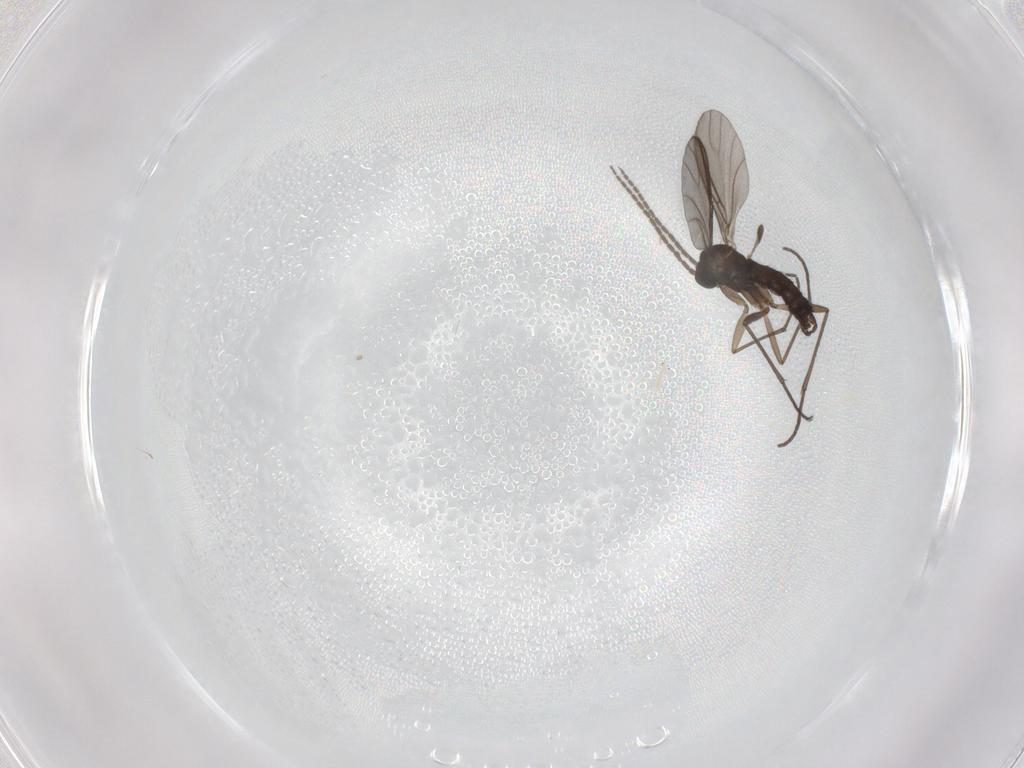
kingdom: Animalia
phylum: Arthropoda
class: Insecta
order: Diptera
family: Sciaridae
